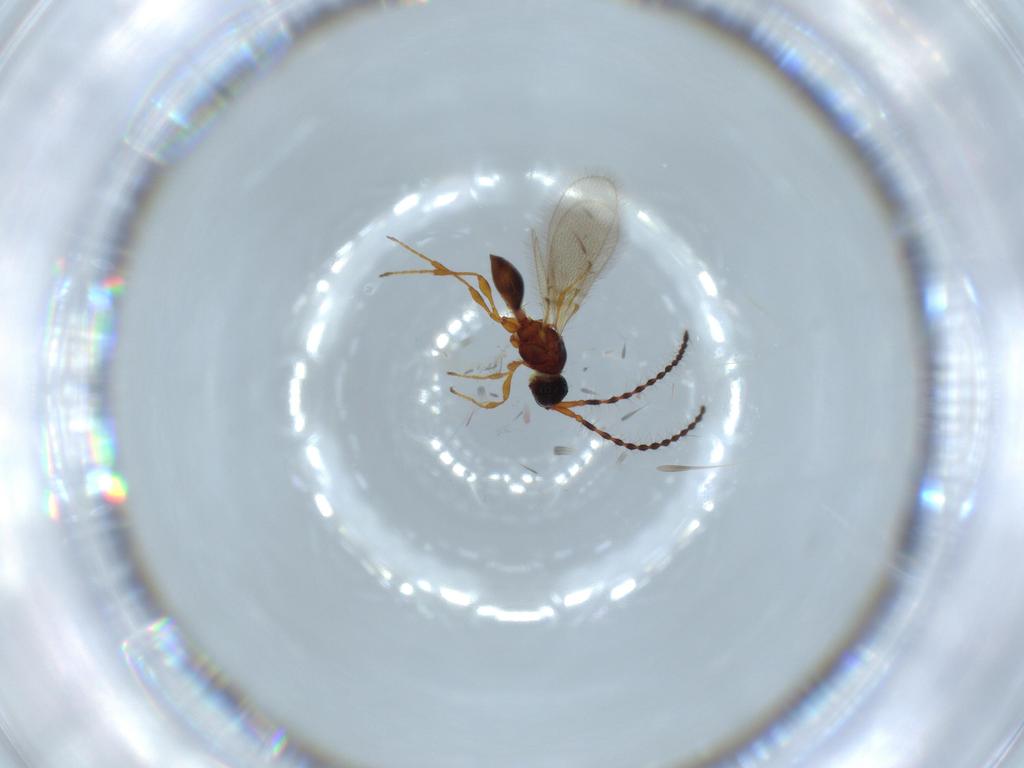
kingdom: Animalia
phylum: Arthropoda
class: Insecta
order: Hymenoptera
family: Diapriidae
